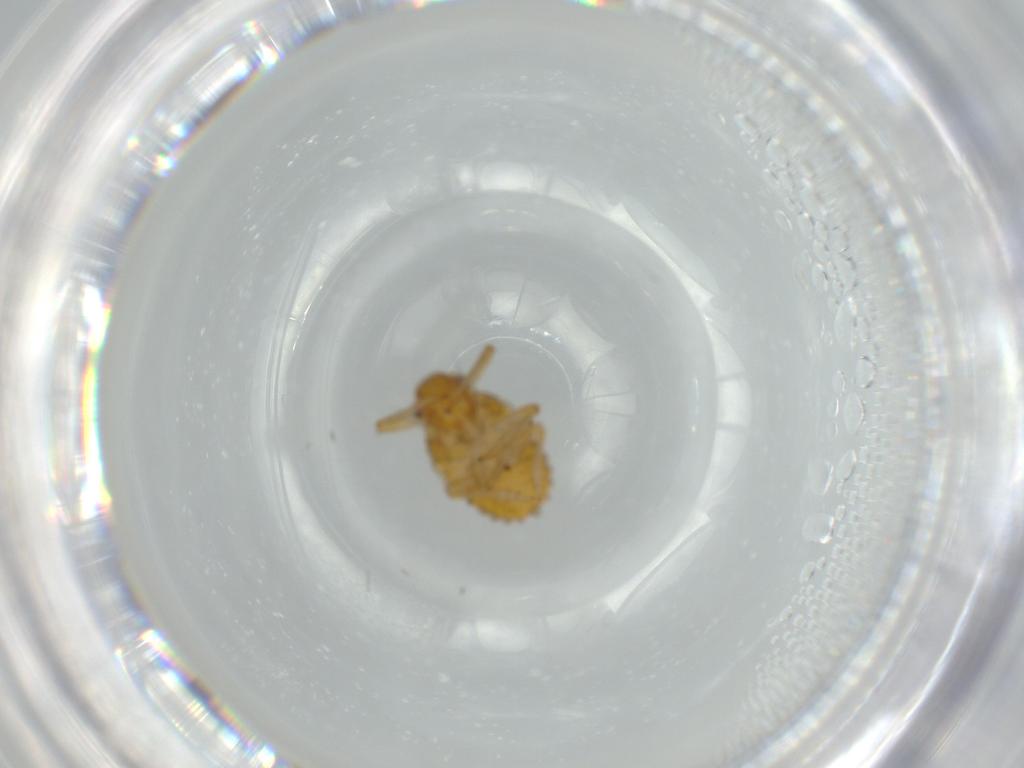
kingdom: Animalia
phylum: Arthropoda
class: Insecta
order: Hemiptera
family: Issidae
